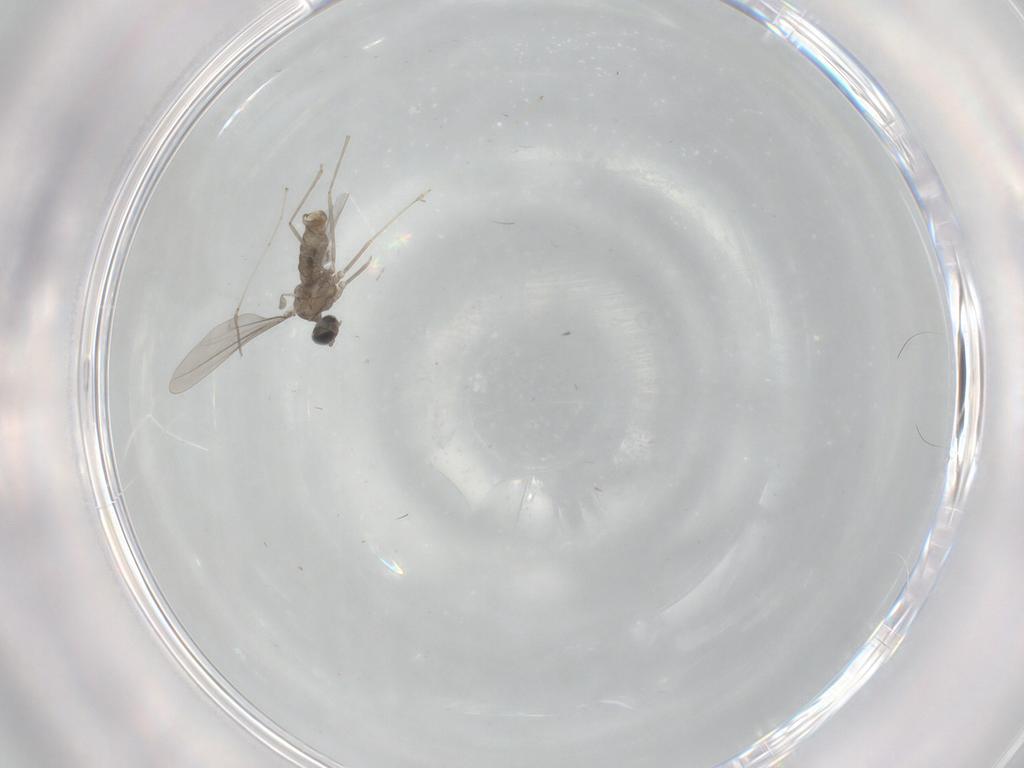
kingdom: Animalia
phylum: Arthropoda
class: Insecta
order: Diptera
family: Cecidomyiidae
